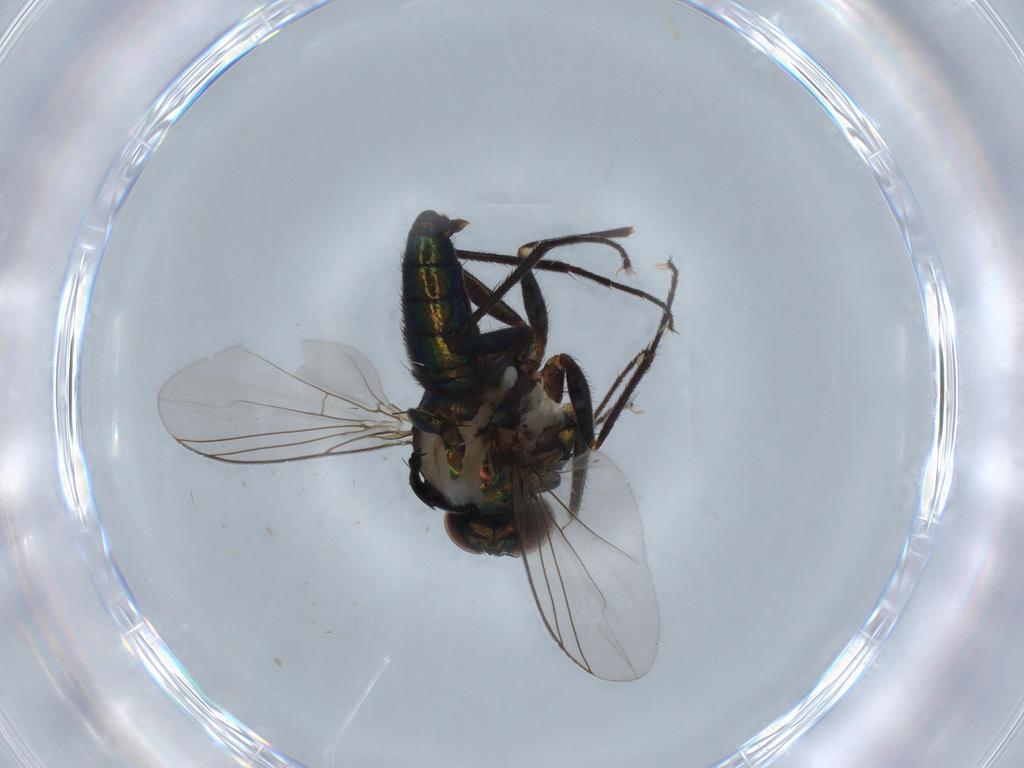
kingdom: Animalia
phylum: Arthropoda
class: Insecta
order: Diptera
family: Dolichopodidae
